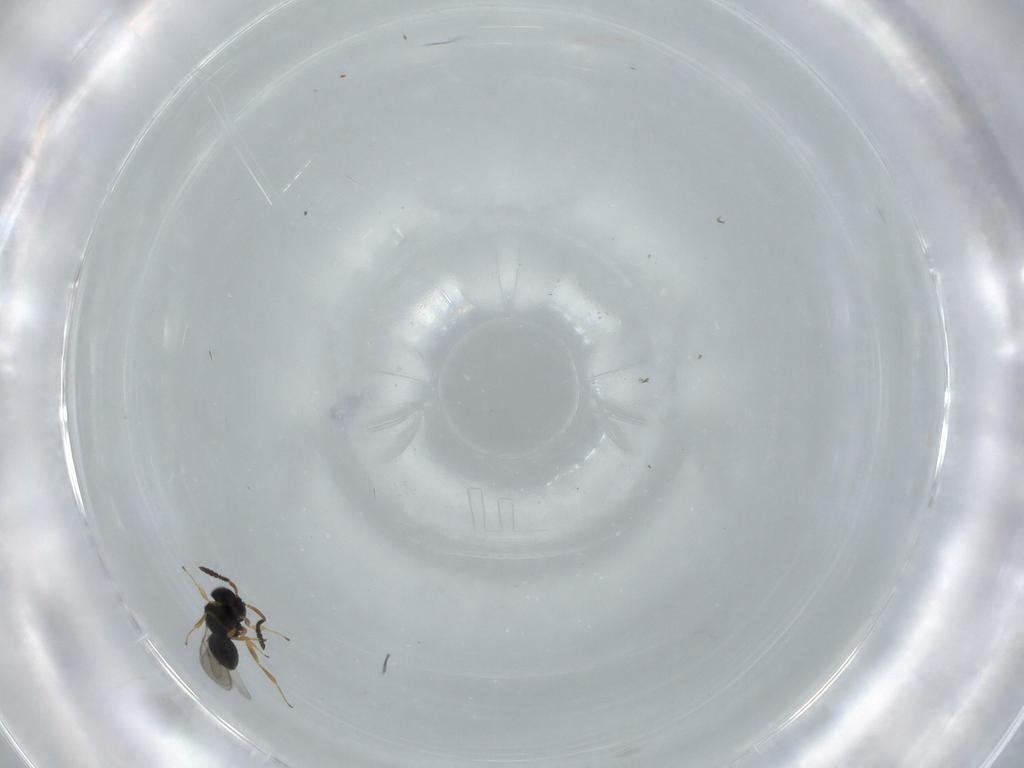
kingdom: Animalia
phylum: Arthropoda
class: Insecta
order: Hymenoptera
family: Scelionidae
